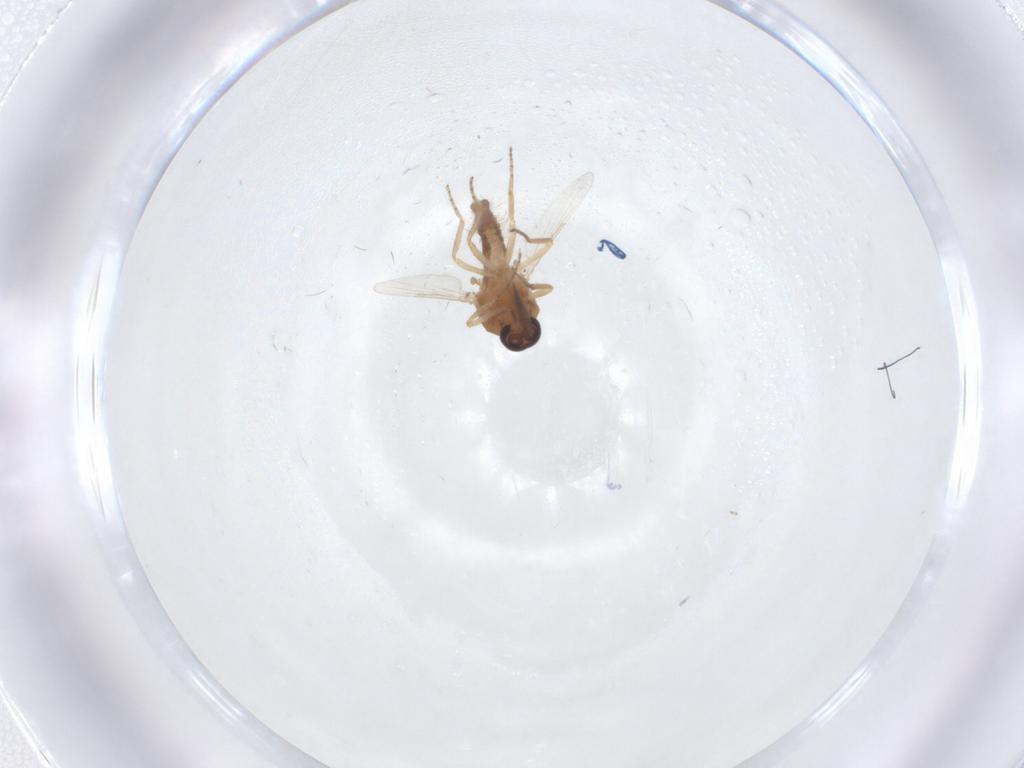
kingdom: Animalia
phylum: Arthropoda
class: Insecta
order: Diptera
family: Ceratopogonidae
